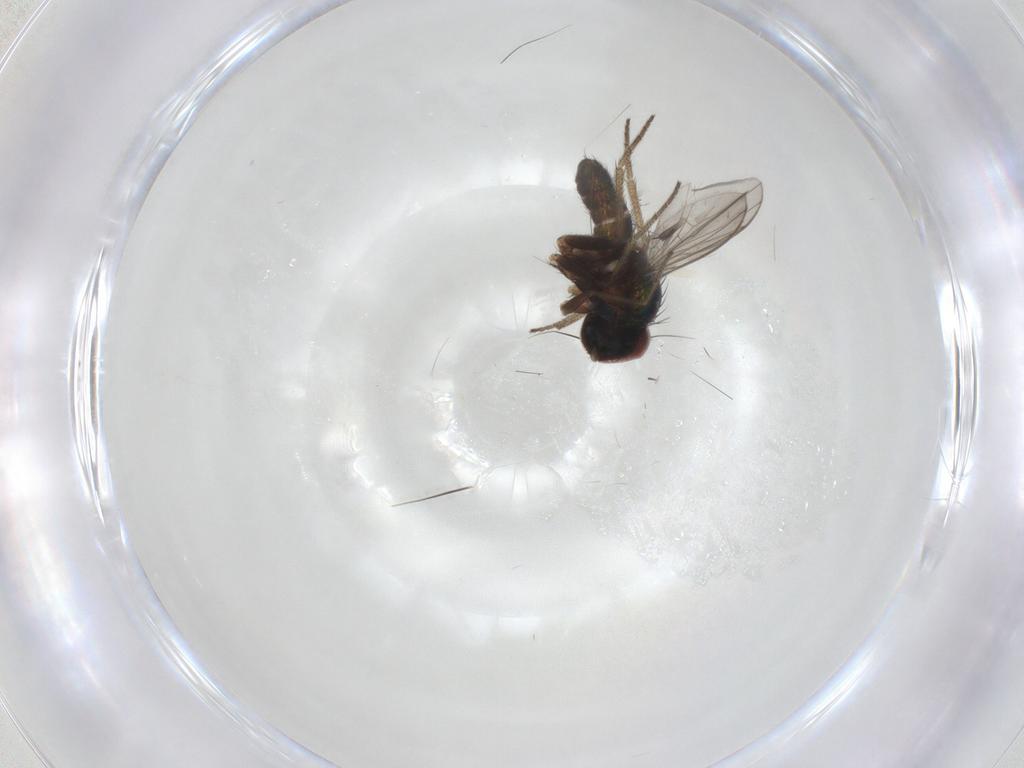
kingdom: Animalia
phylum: Arthropoda
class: Insecta
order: Diptera
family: Dolichopodidae
